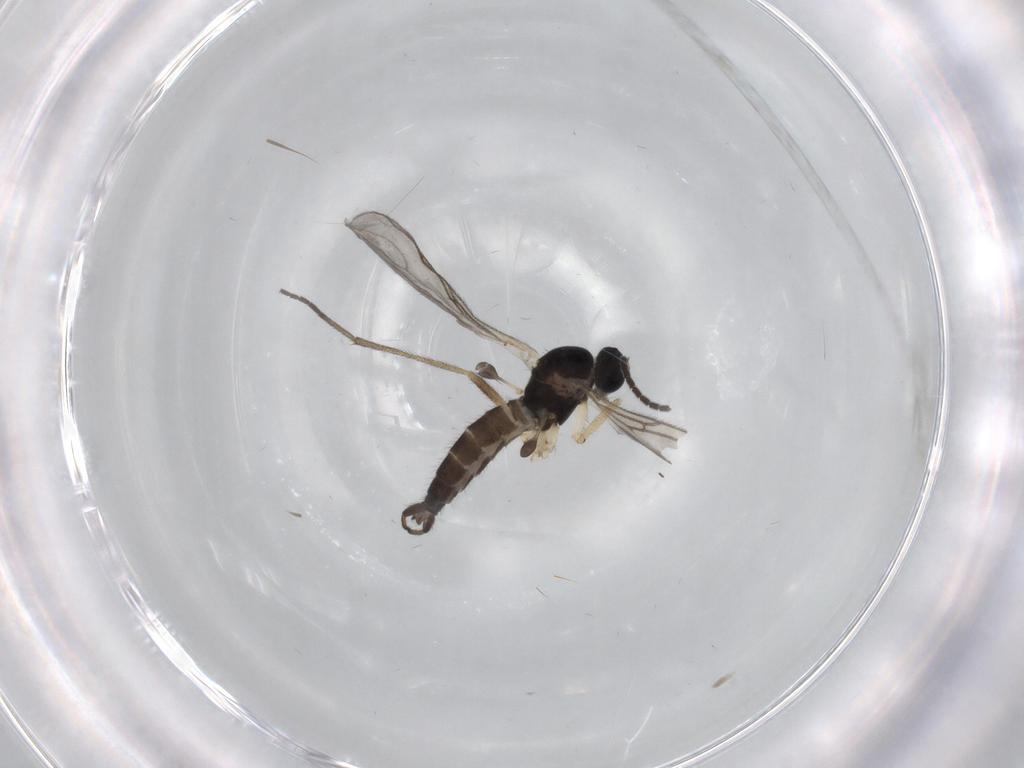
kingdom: Animalia
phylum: Arthropoda
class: Insecta
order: Diptera
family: Sciaridae
